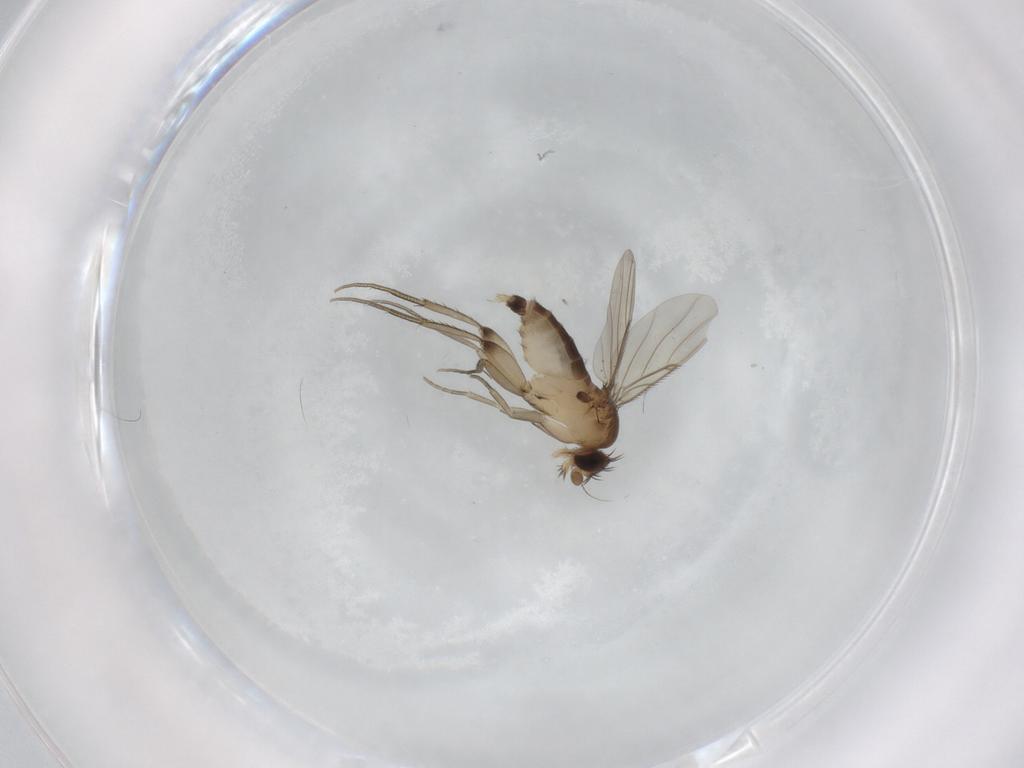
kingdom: Animalia
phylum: Arthropoda
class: Insecta
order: Diptera
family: Phoridae
